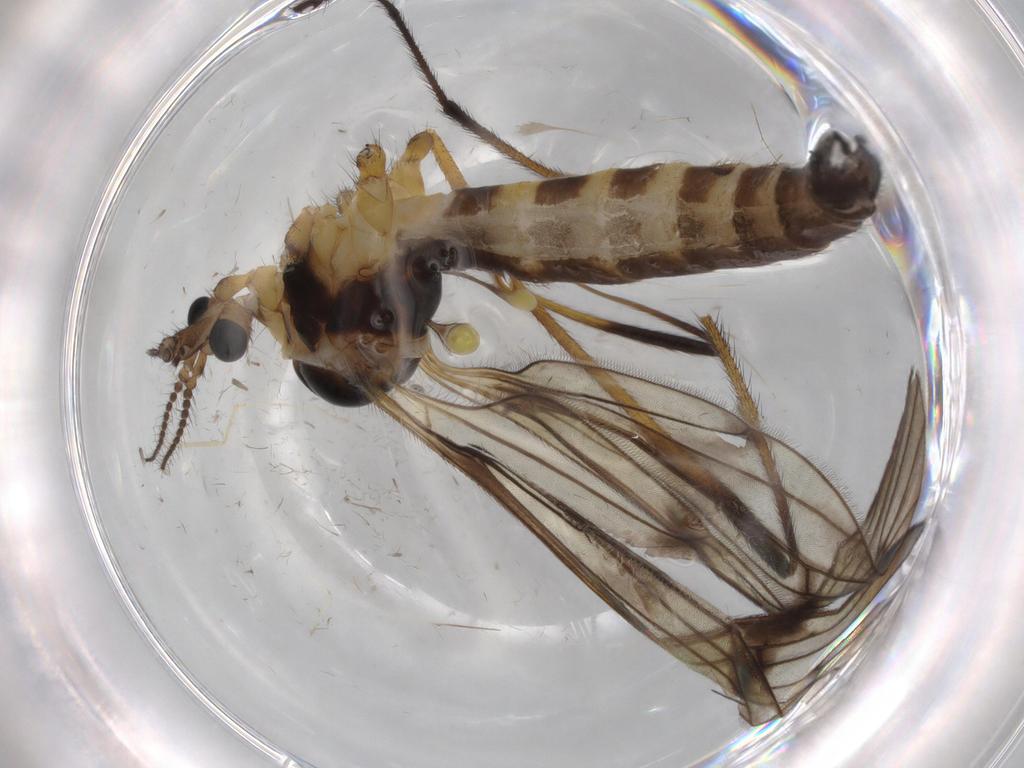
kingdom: Animalia
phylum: Arthropoda
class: Insecta
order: Diptera
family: Limoniidae
